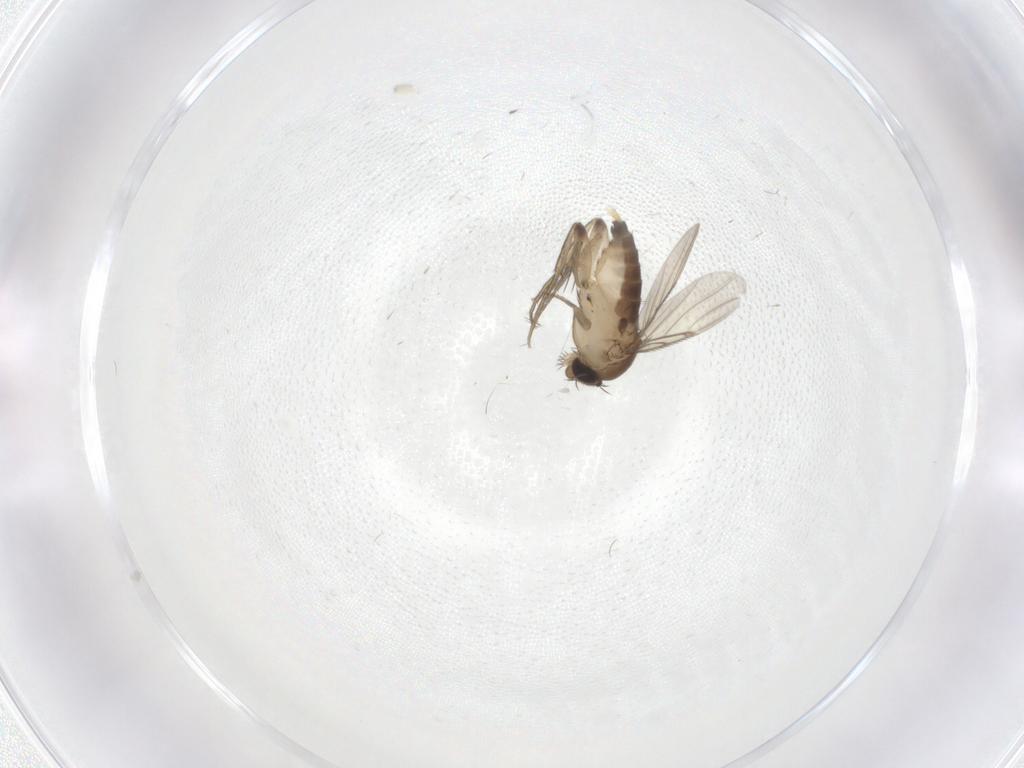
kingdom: Animalia
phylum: Arthropoda
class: Insecta
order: Diptera
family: Phoridae
